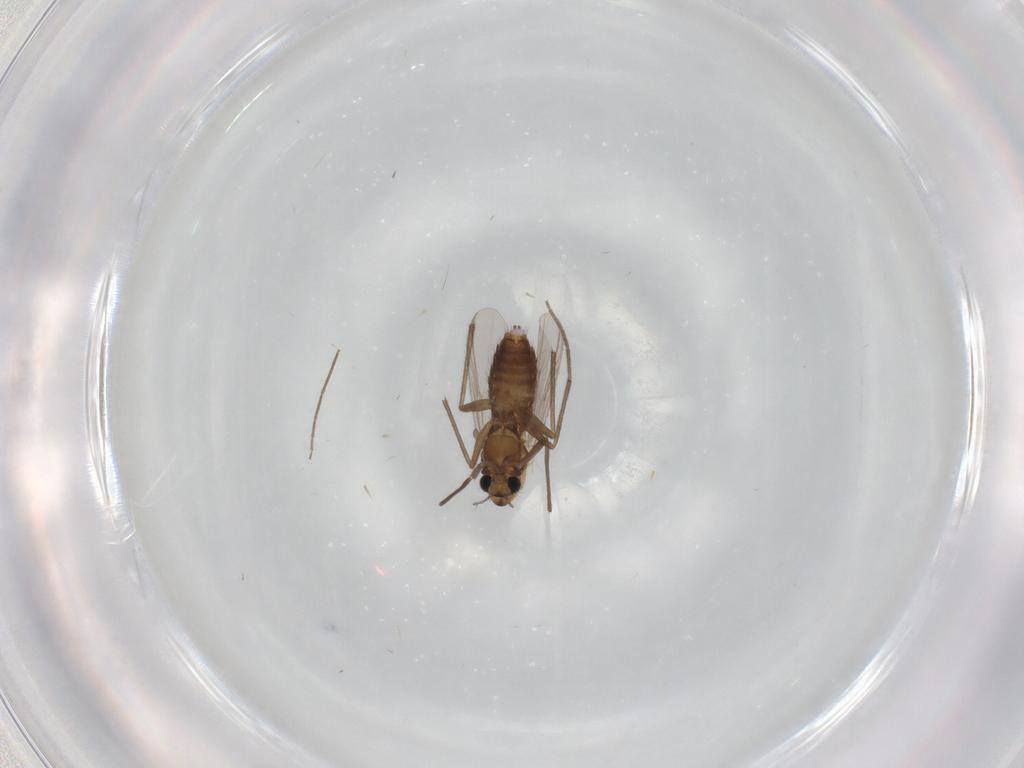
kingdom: Animalia
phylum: Arthropoda
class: Insecta
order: Diptera
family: Chironomidae
